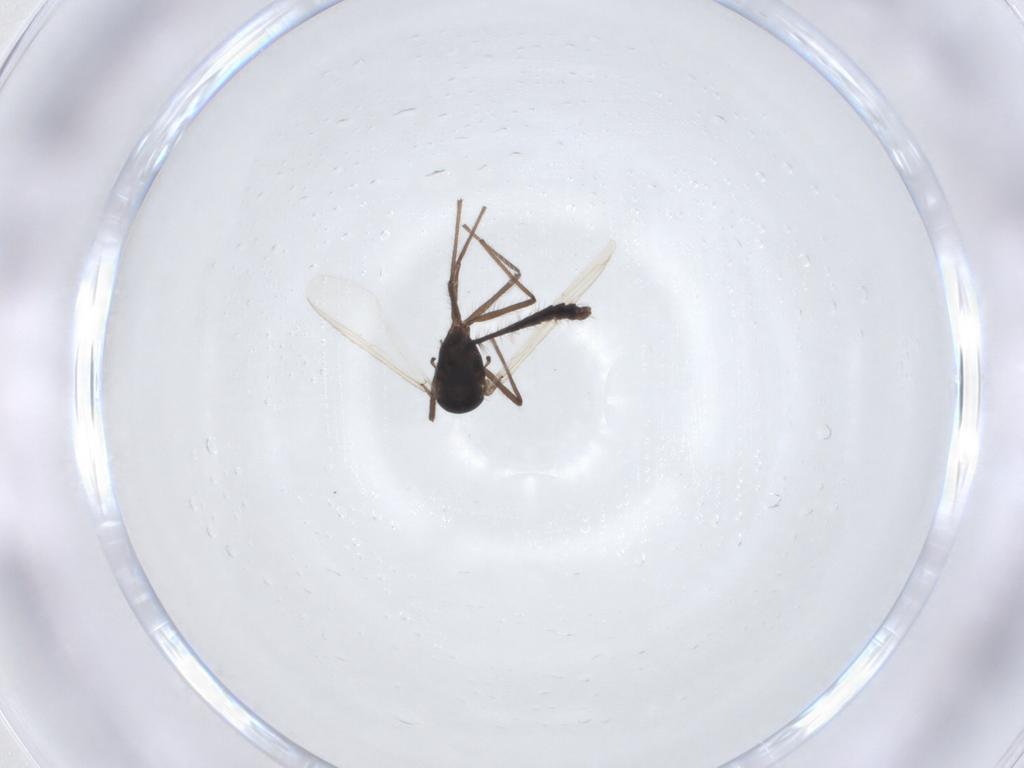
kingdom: Animalia
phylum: Arthropoda
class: Insecta
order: Diptera
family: Chironomidae
